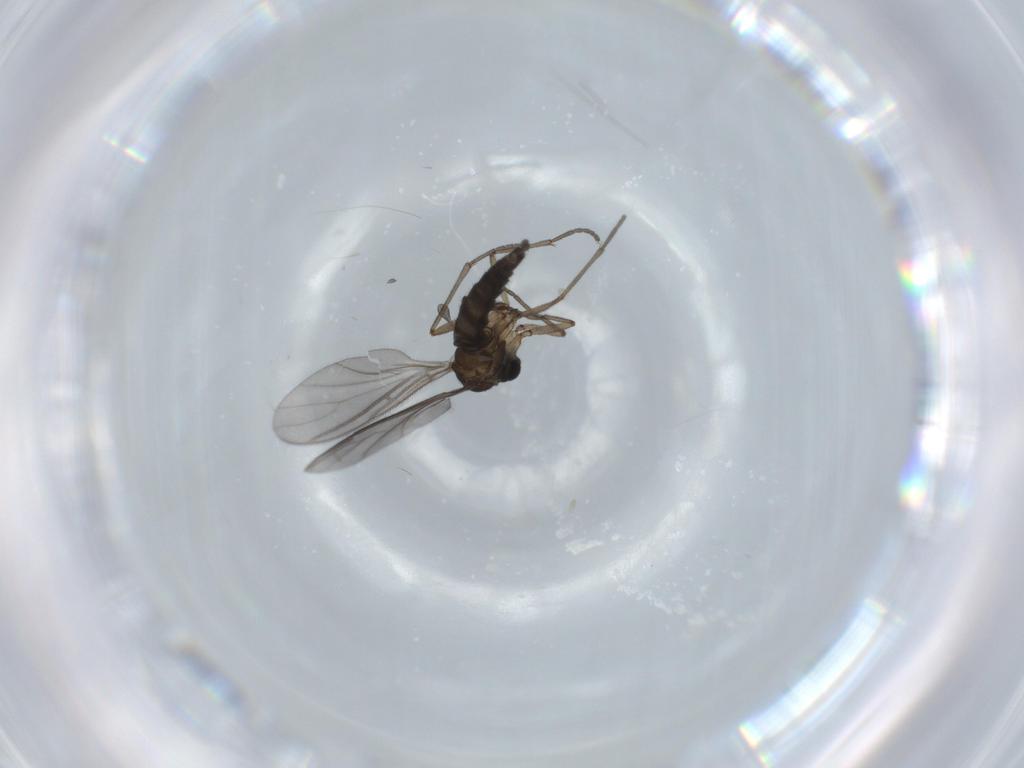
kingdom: Animalia
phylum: Arthropoda
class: Insecta
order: Diptera
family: Sciaridae
